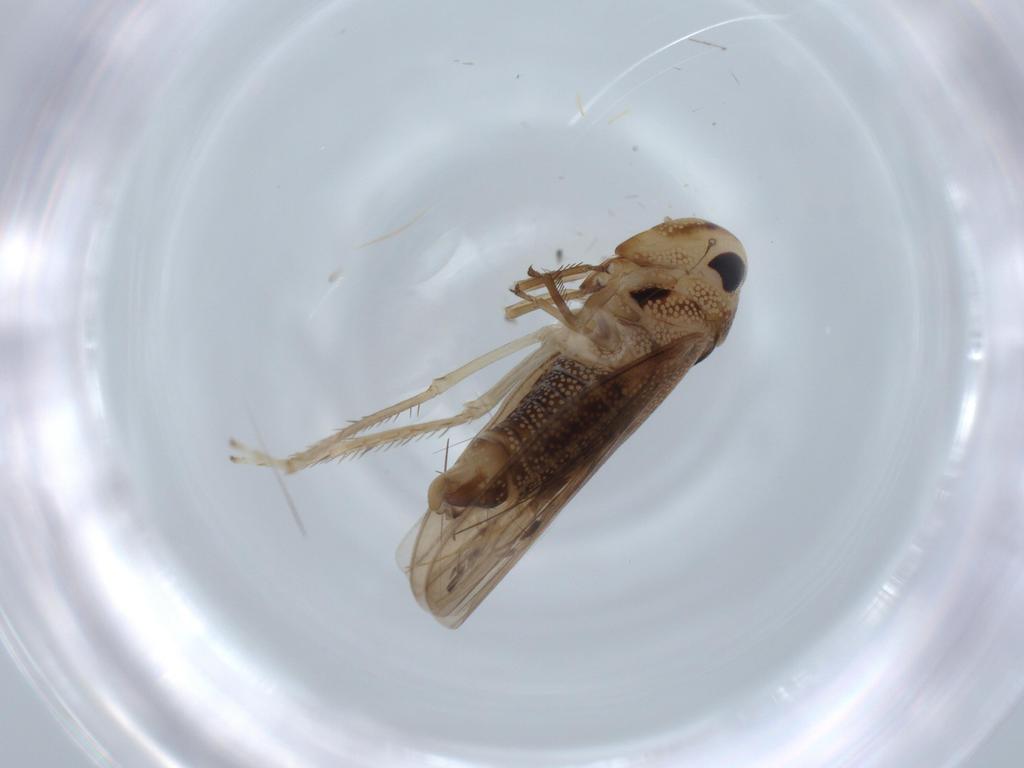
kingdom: Animalia
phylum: Arthropoda
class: Insecta
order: Hemiptera
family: Cicadellidae
